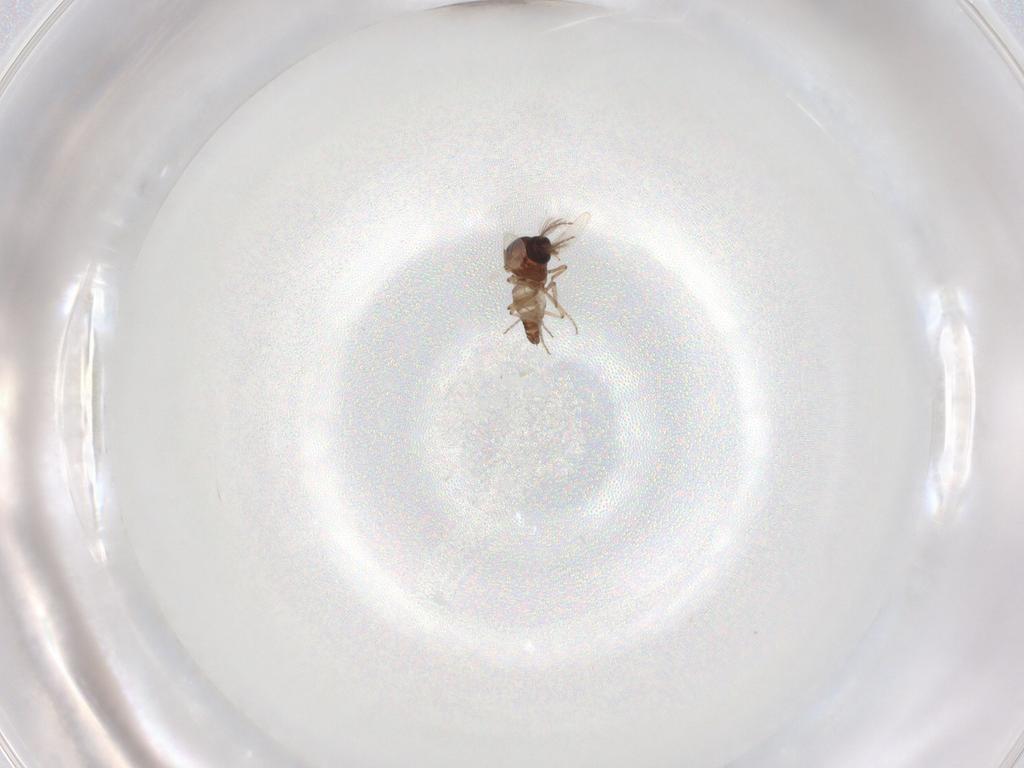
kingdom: Animalia
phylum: Arthropoda
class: Insecta
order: Diptera
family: Ceratopogonidae
